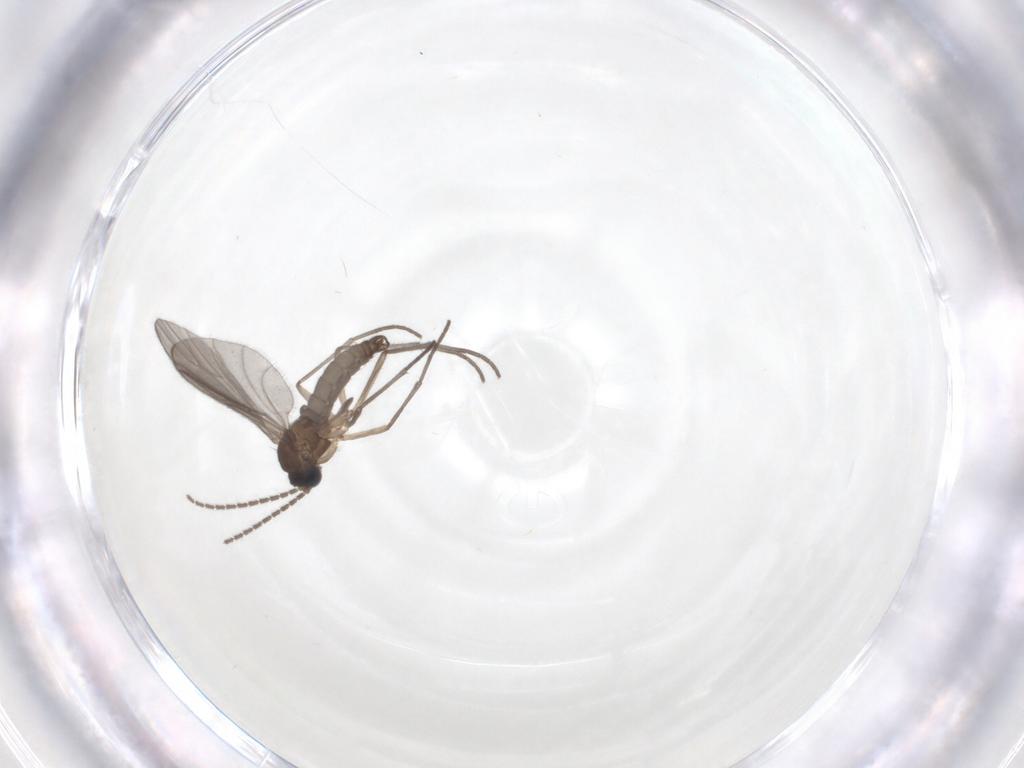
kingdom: Animalia
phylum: Arthropoda
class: Insecta
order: Diptera
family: Sciaridae
